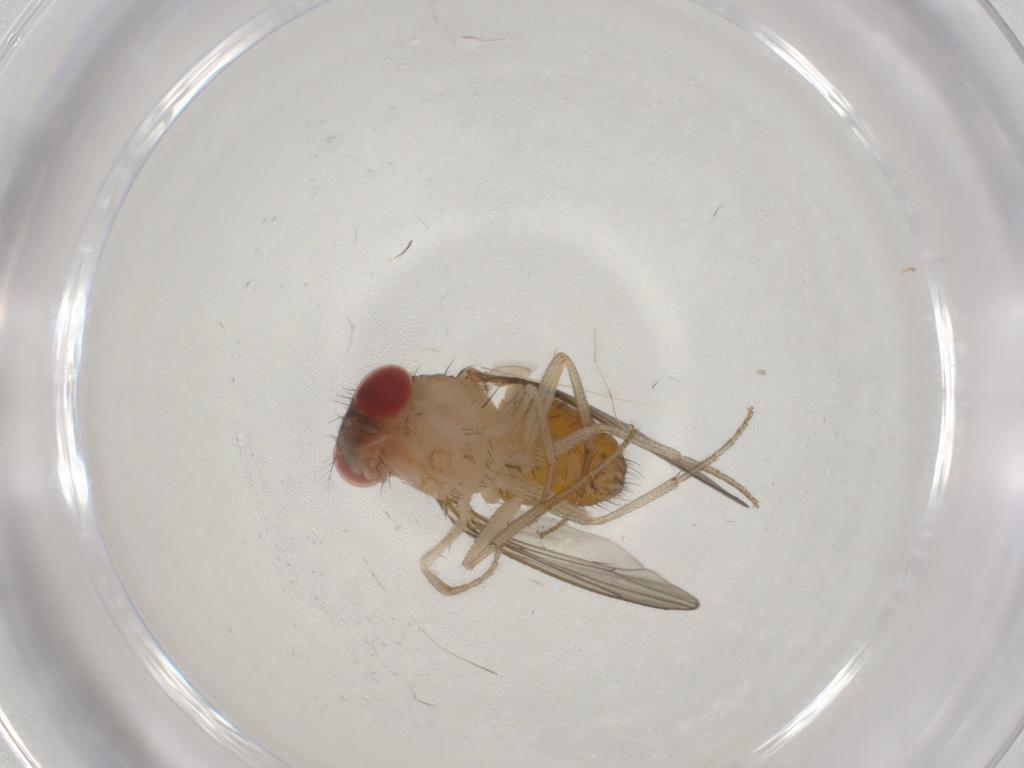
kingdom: Animalia
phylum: Arthropoda
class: Insecta
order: Diptera
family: Drosophilidae
